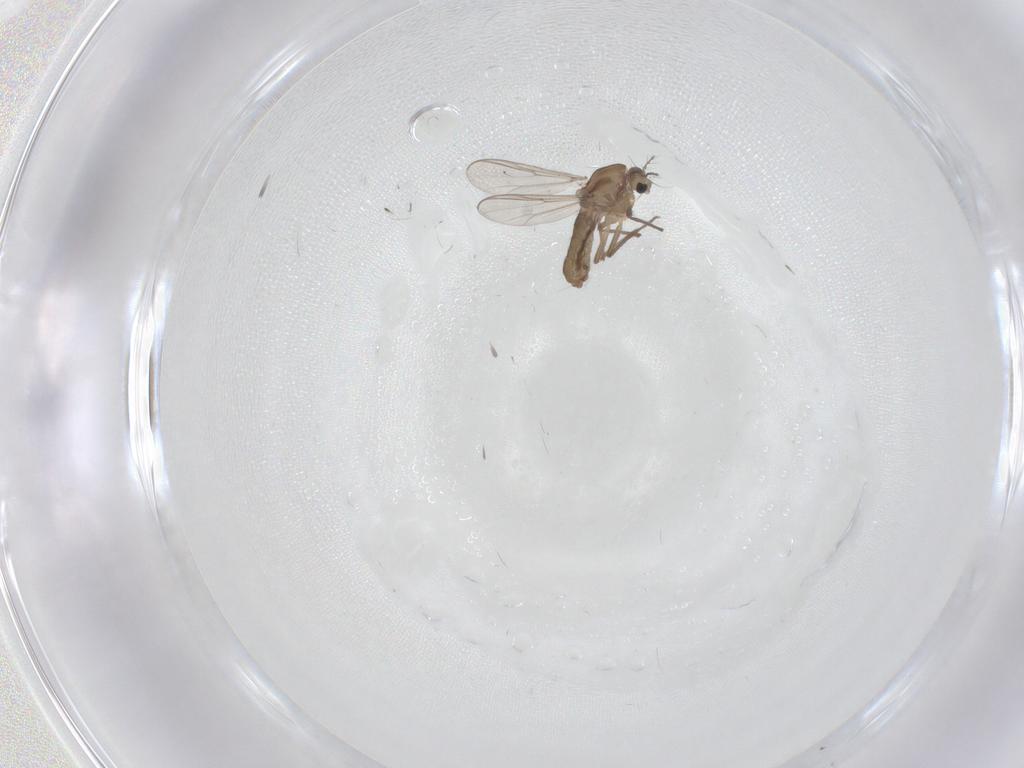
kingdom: Animalia
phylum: Arthropoda
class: Insecta
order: Diptera
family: Chironomidae
